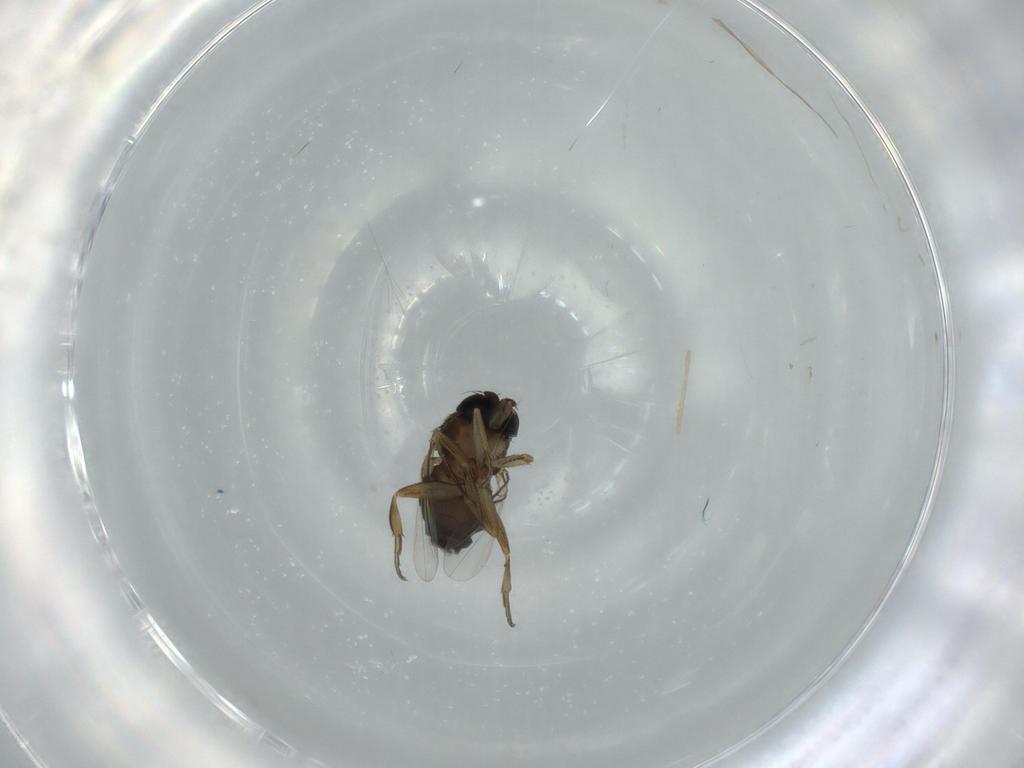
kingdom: Animalia
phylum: Arthropoda
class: Insecta
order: Diptera
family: Phoridae
